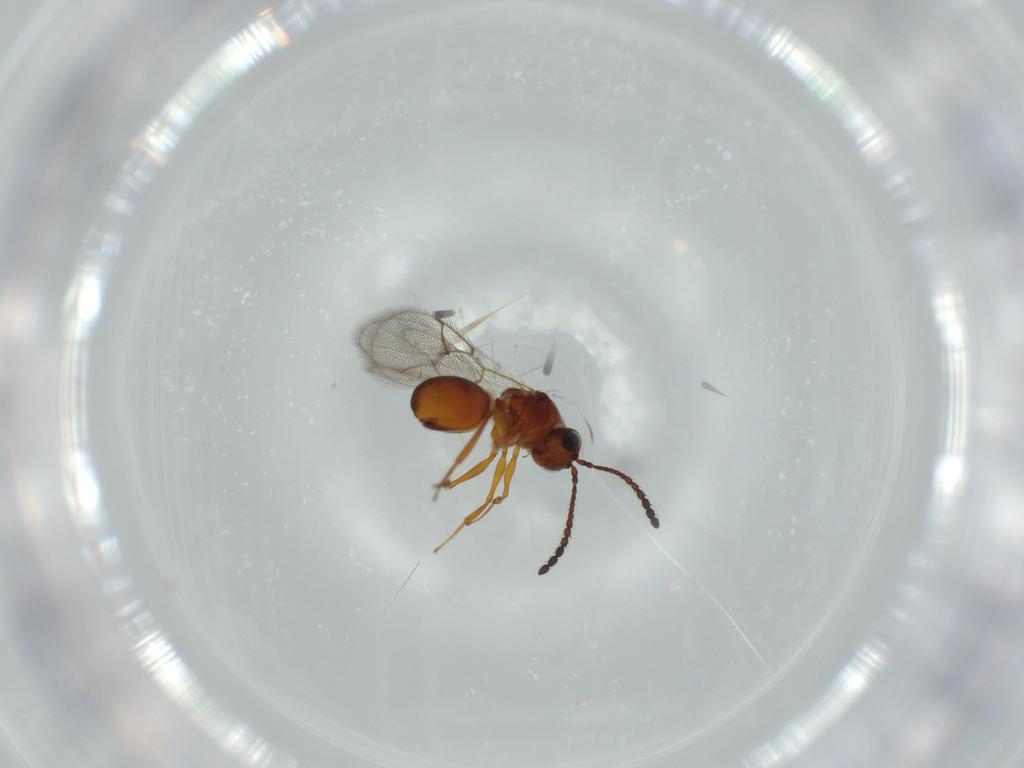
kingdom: Animalia
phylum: Arthropoda
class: Insecta
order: Hymenoptera
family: Figitidae
